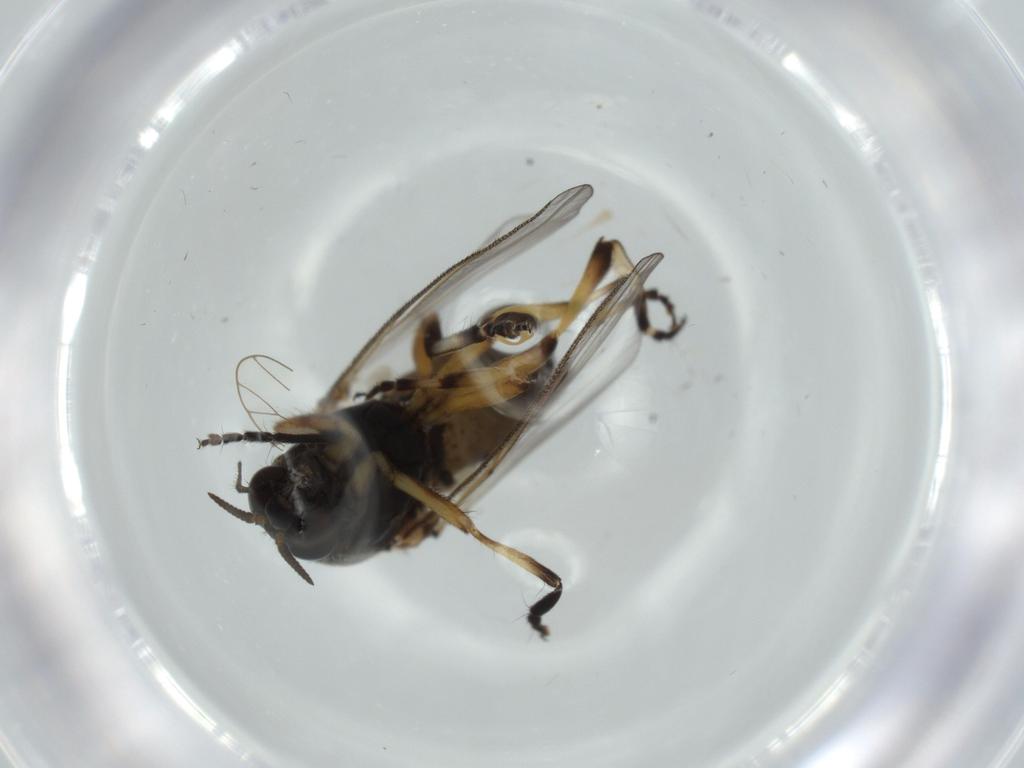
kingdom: Animalia
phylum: Arthropoda
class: Insecta
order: Diptera
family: Simuliidae
